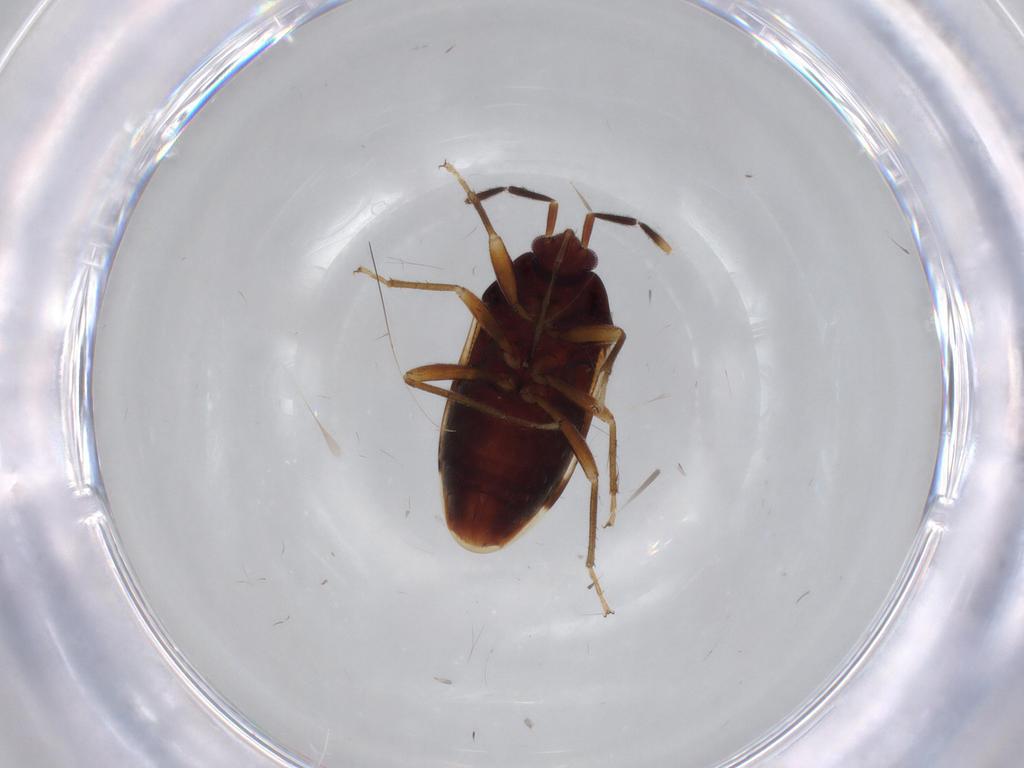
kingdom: Animalia
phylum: Arthropoda
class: Insecta
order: Hemiptera
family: Rhyparochromidae
